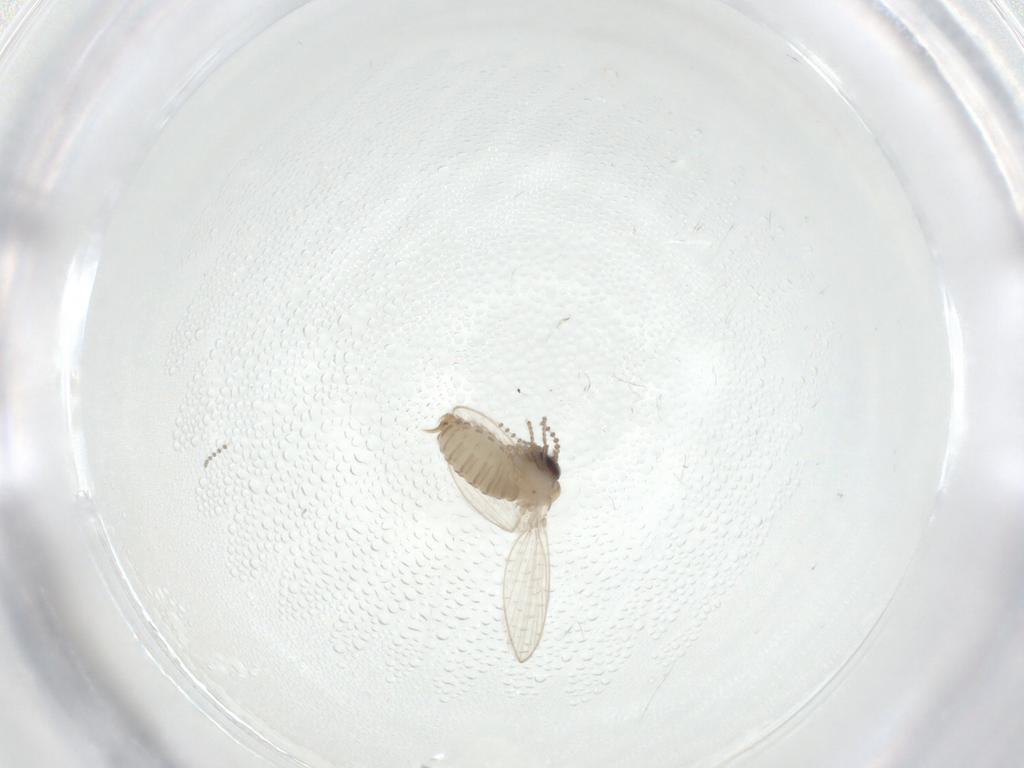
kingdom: Animalia
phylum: Arthropoda
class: Insecta
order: Diptera
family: Psychodidae
